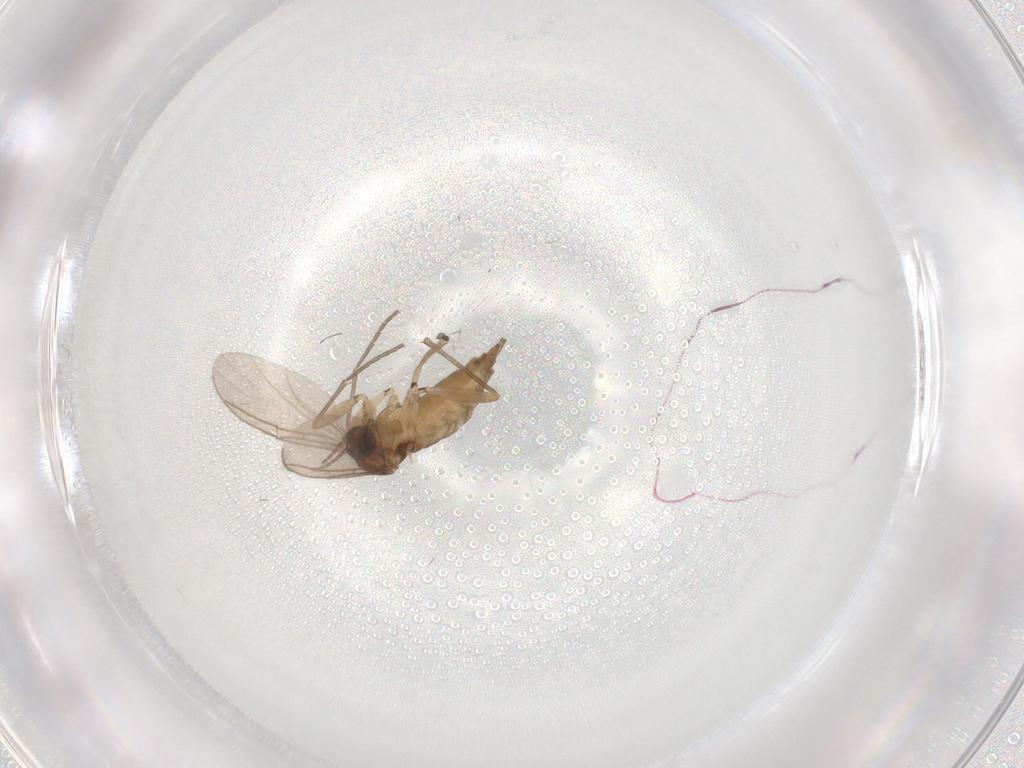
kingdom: Animalia
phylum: Arthropoda
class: Insecta
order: Diptera
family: Sciaridae
